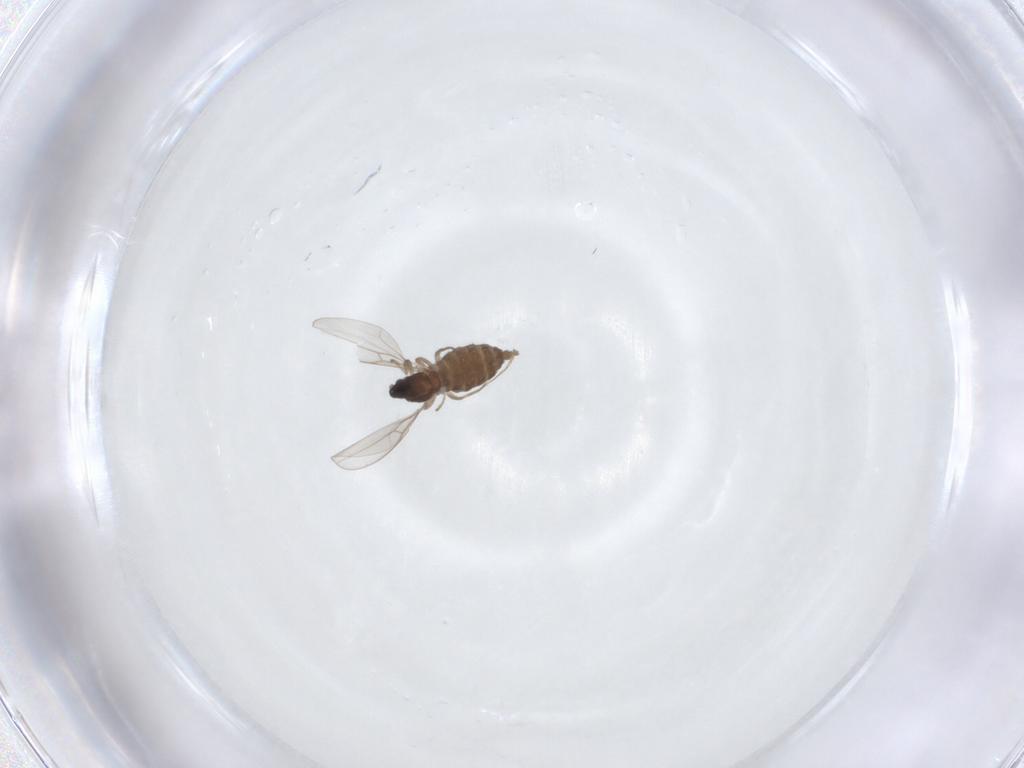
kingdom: Animalia
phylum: Arthropoda
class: Insecta
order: Diptera
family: Cecidomyiidae
